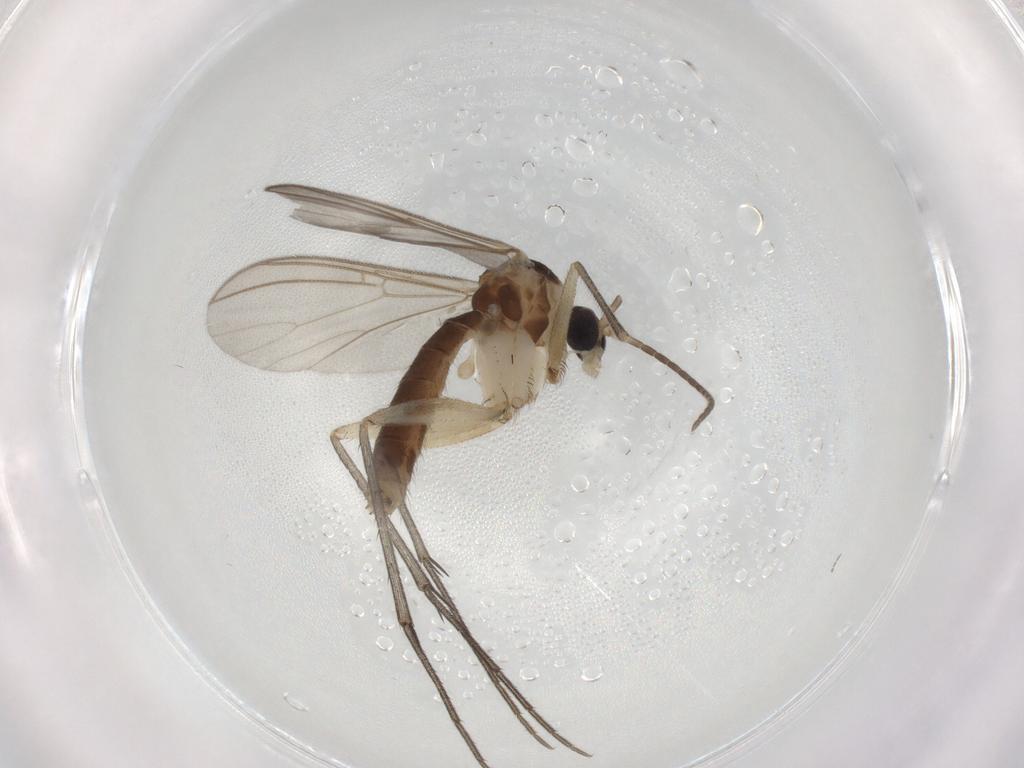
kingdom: Animalia
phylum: Arthropoda
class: Insecta
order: Diptera
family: Mycetophilidae
